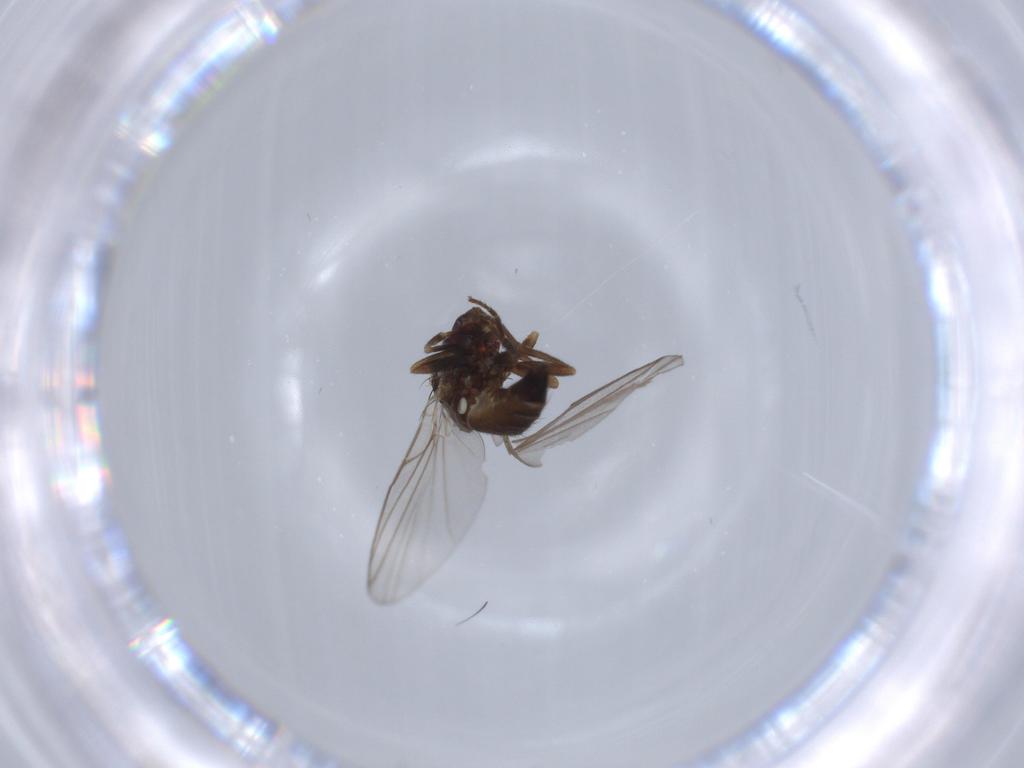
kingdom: Animalia
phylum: Arthropoda
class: Insecta
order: Diptera
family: Agromyzidae
